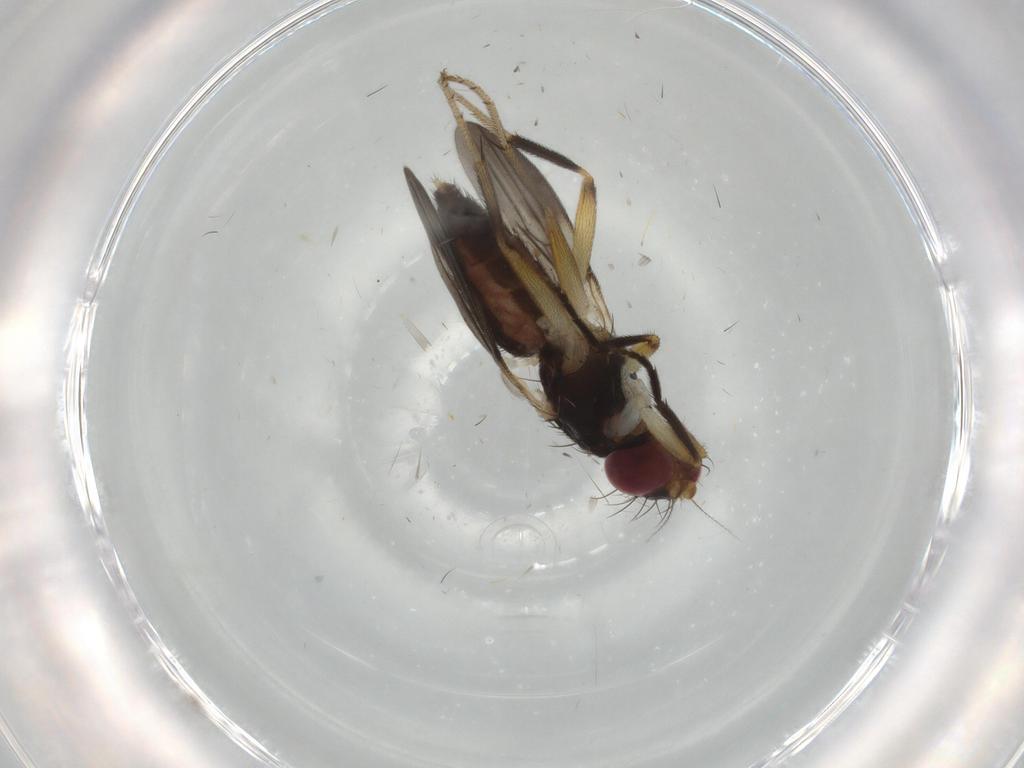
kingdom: Animalia
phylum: Arthropoda
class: Insecta
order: Diptera
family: Clusiidae
